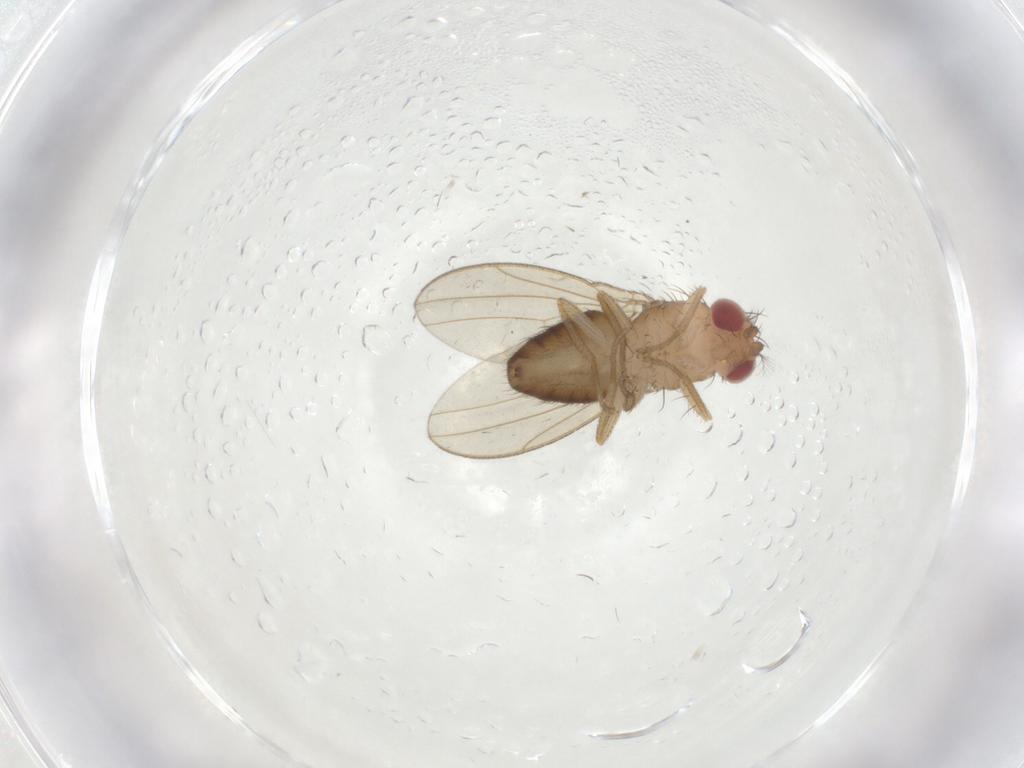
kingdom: Animalia
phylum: Arthropoda
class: Insecta
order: Diptera
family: Drosophilidae
